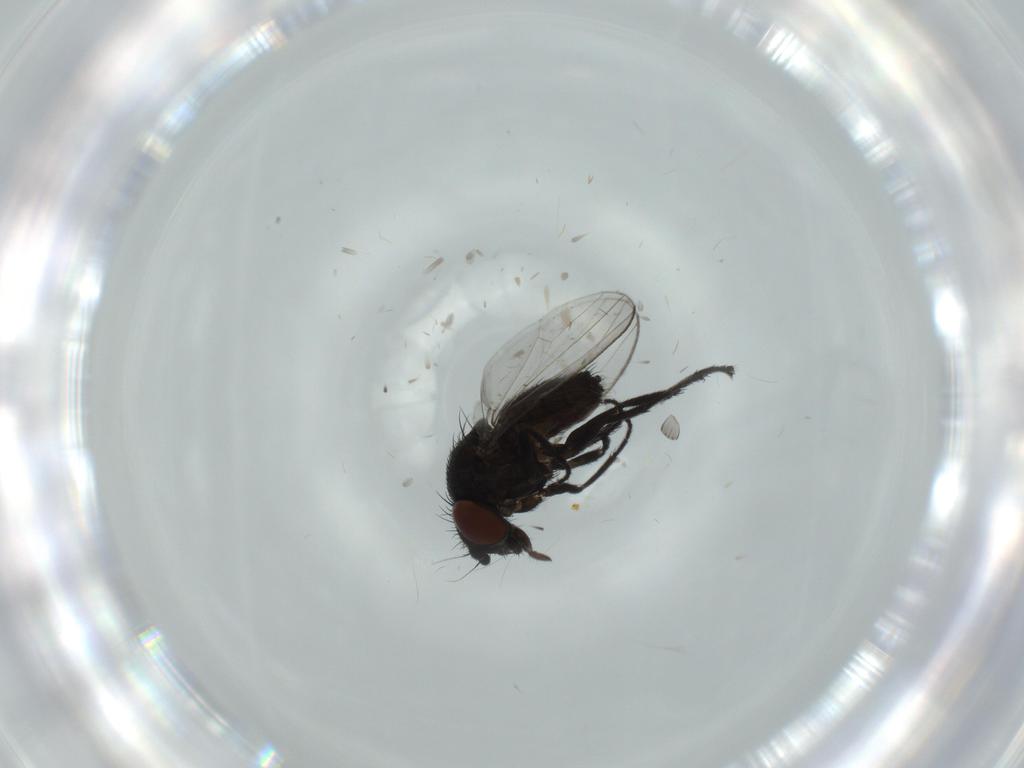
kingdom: Animalia
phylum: Arthropoda
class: Insecta
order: Diptera
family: Milichiidae
